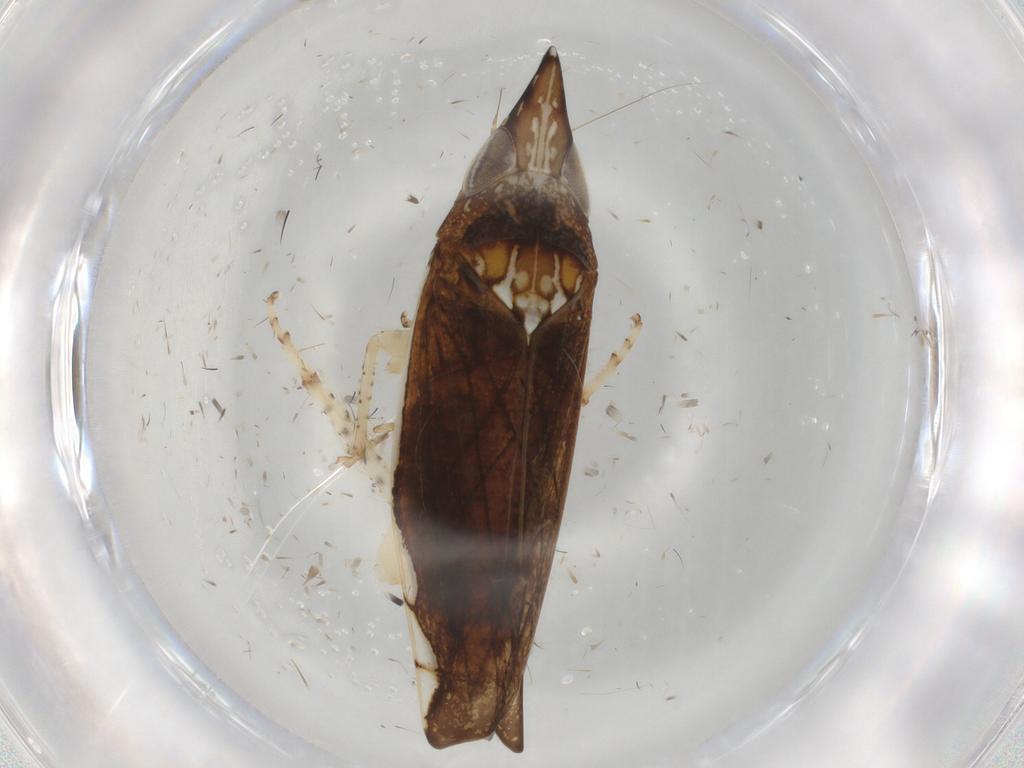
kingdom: Animalia
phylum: Arthropoda
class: Insecta
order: Hemiptera
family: Cicadellidae
